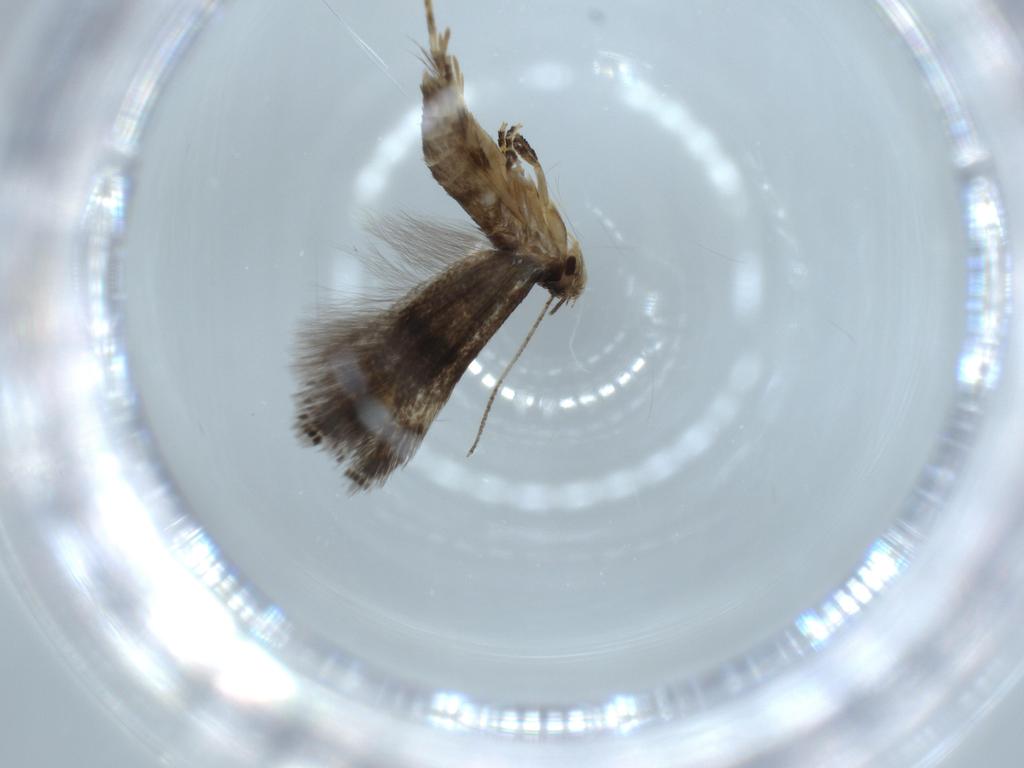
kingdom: Animalia
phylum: Arthropoda
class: Insecta
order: Lepidoptera
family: Gelechiidae
